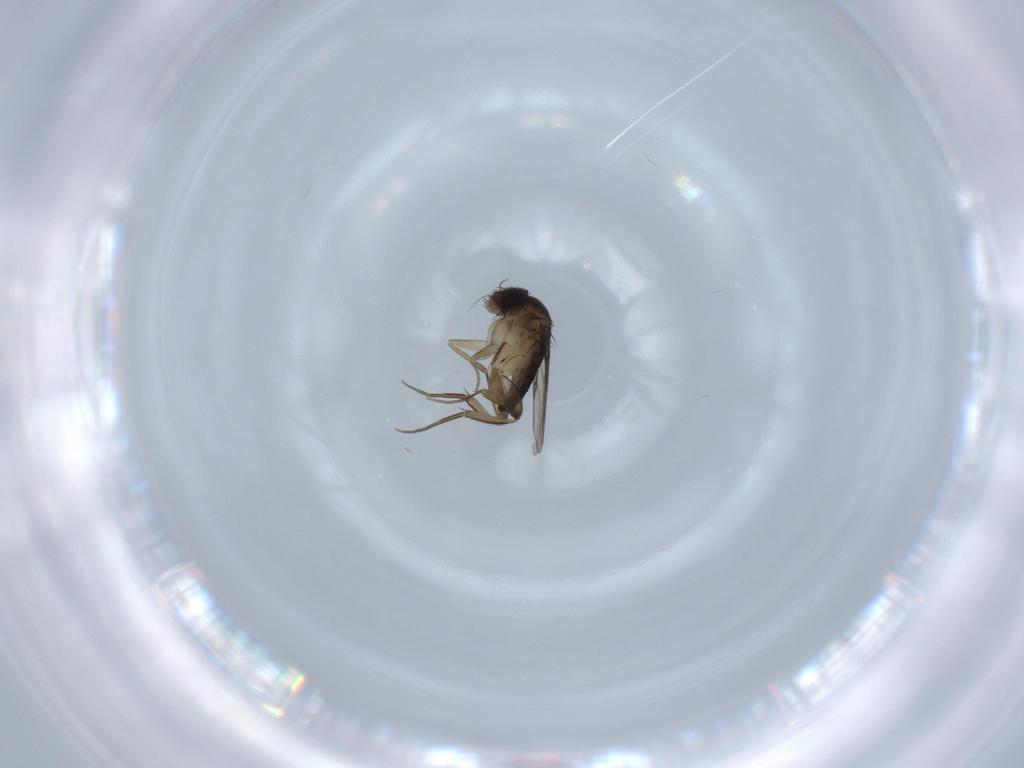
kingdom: Animalia
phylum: Arthropoda
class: Insecta
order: Diptera
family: Phoridae
